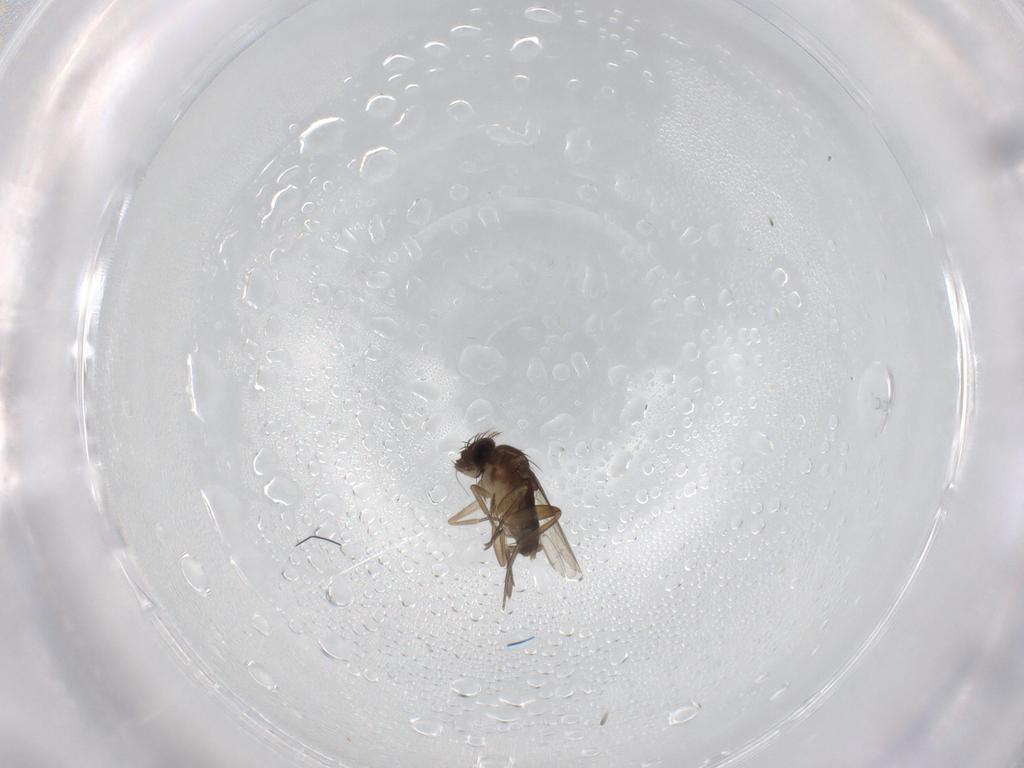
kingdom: Animalia
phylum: Arthropoda
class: Insecta
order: Diptera
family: Phoridae
